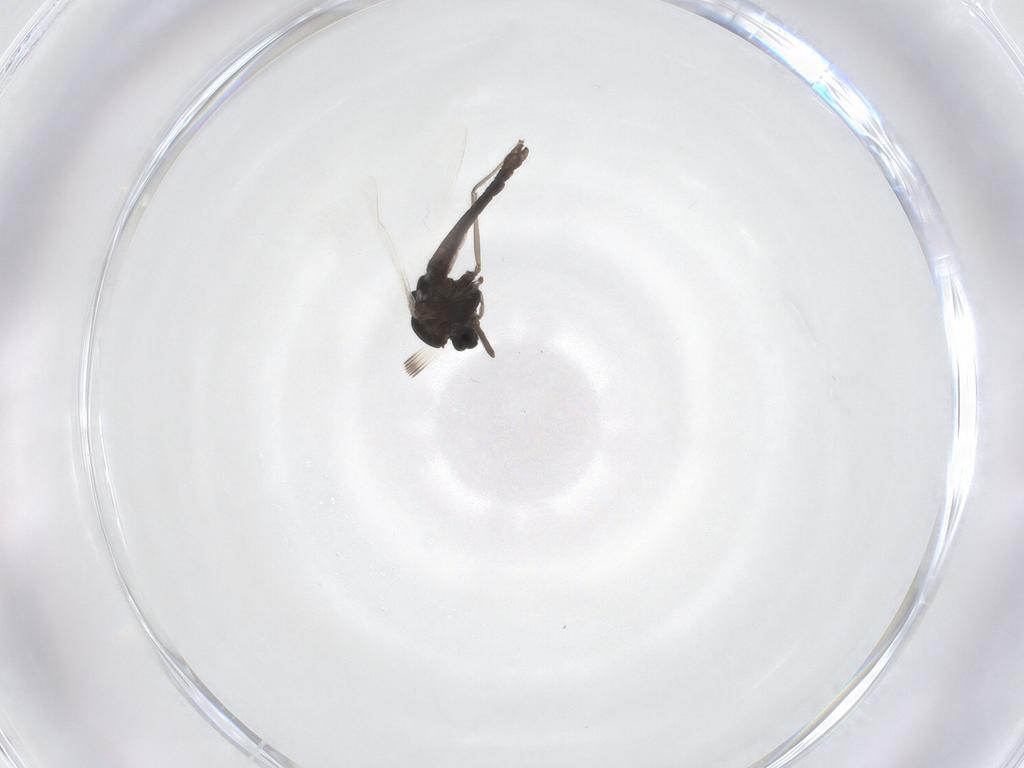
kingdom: Animalia
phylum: Arthropoda
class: Insecta
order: Diptera
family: Chironomidae
